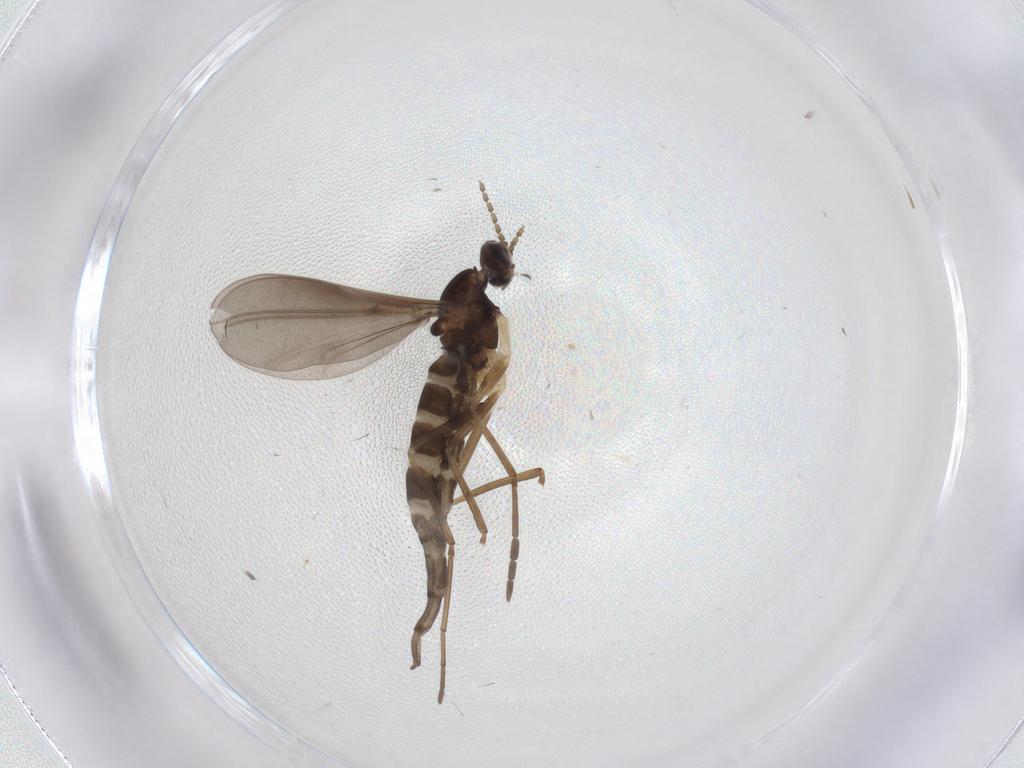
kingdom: Animalia
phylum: Arthropoda
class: Insecta
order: Diptera
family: Cecidomyiidae
